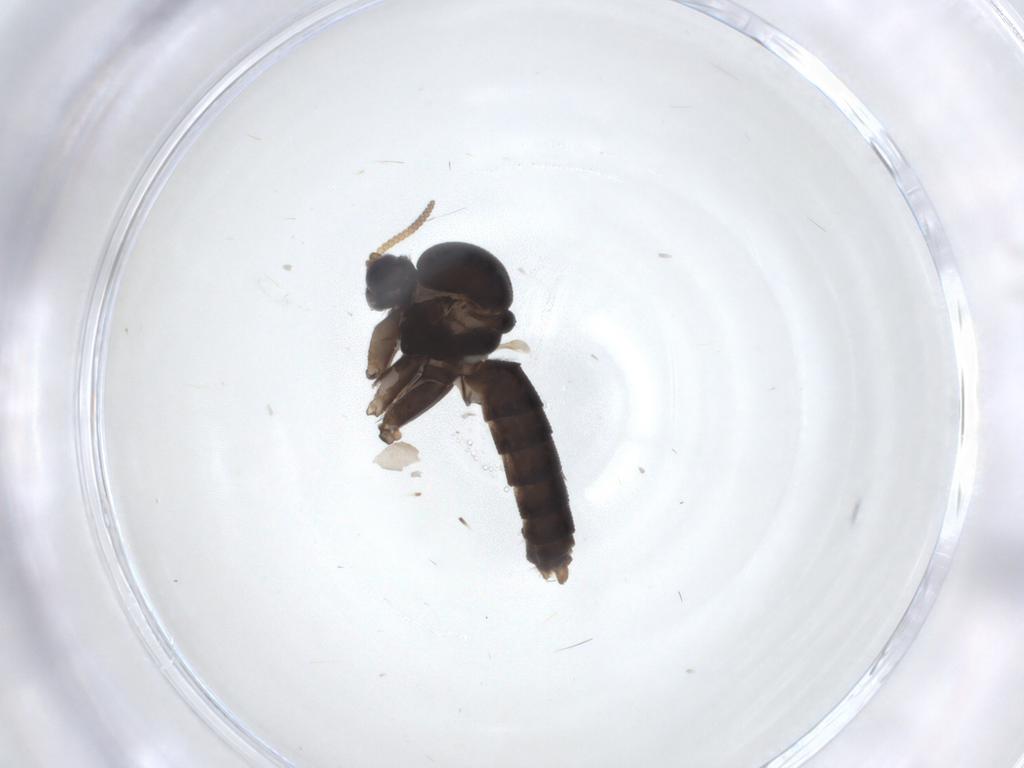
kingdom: Animalia
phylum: Arthropoda
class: Insecta
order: Diptera
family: Mycetophilidae
